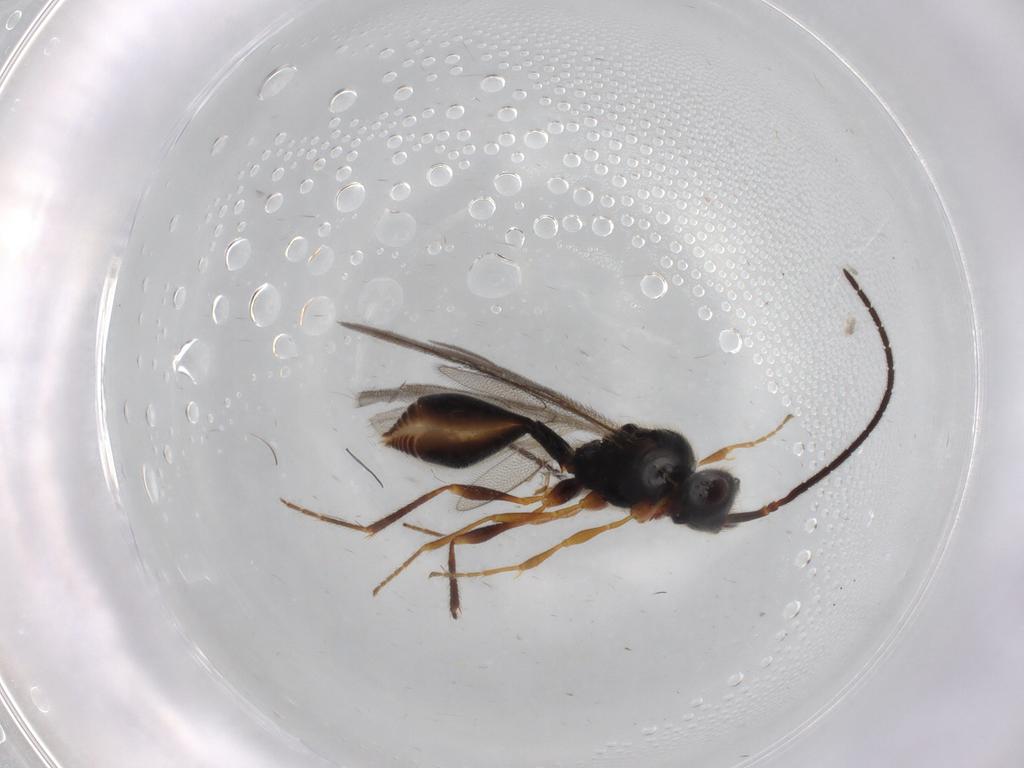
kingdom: Animalia
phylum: Arthropoda
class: Insecta
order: Hymenoptera
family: Diapriidae
